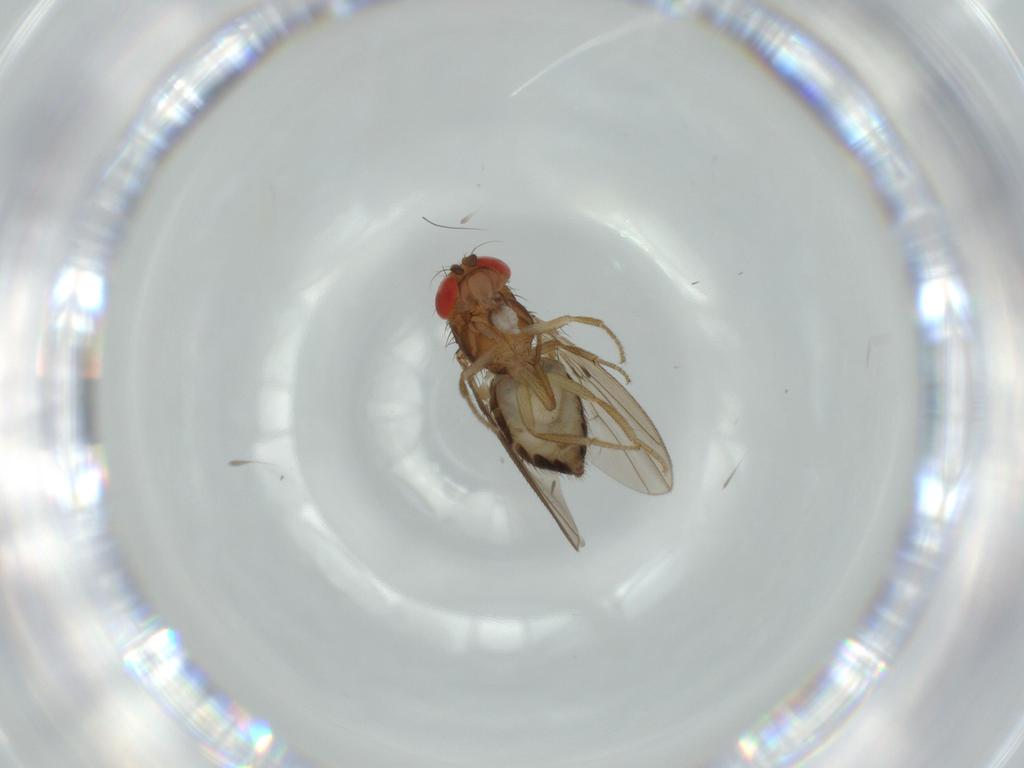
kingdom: Animalia
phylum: Arthropoda
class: Insecta
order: Diptera
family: Drosophilidae
